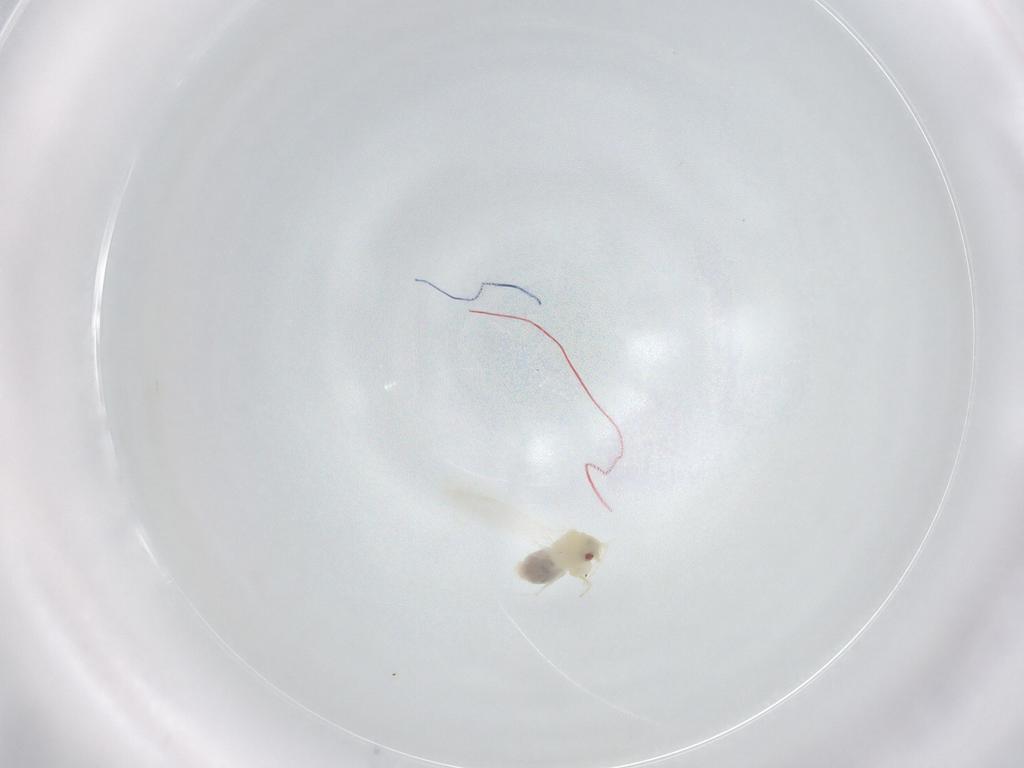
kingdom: Animalia
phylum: Arthropoda
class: Insecta
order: Hemiptera
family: Aleyrodidae
